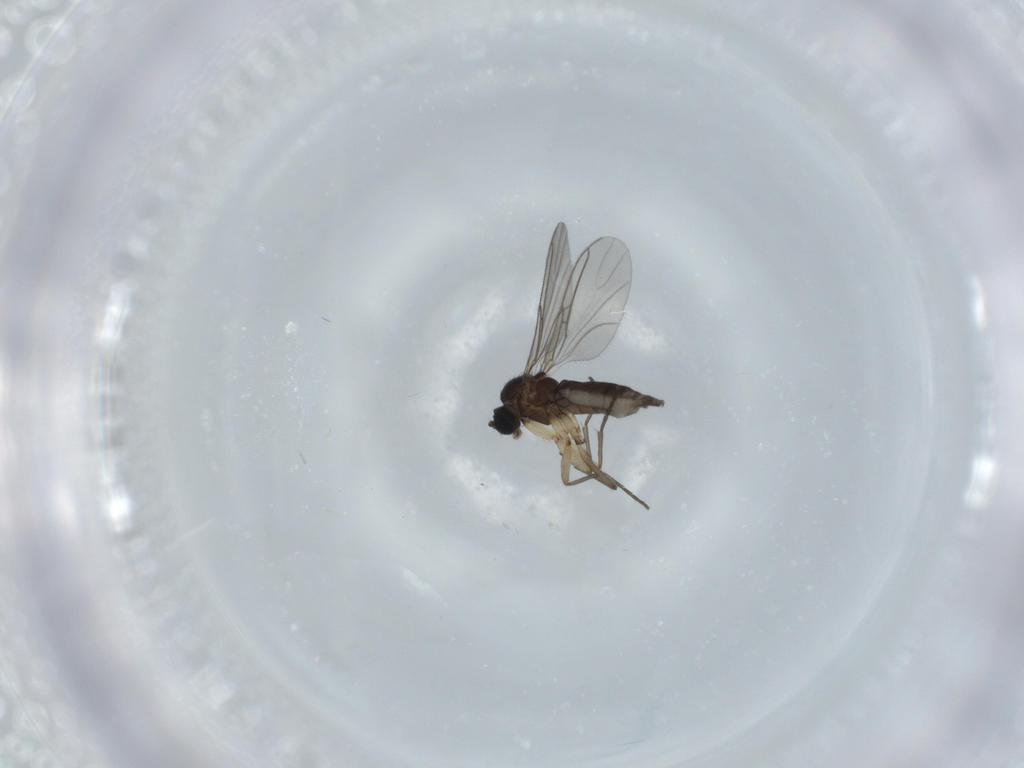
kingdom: Animalia
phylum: Arthropoda
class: Insecta
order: Diptera
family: Sciaridae
